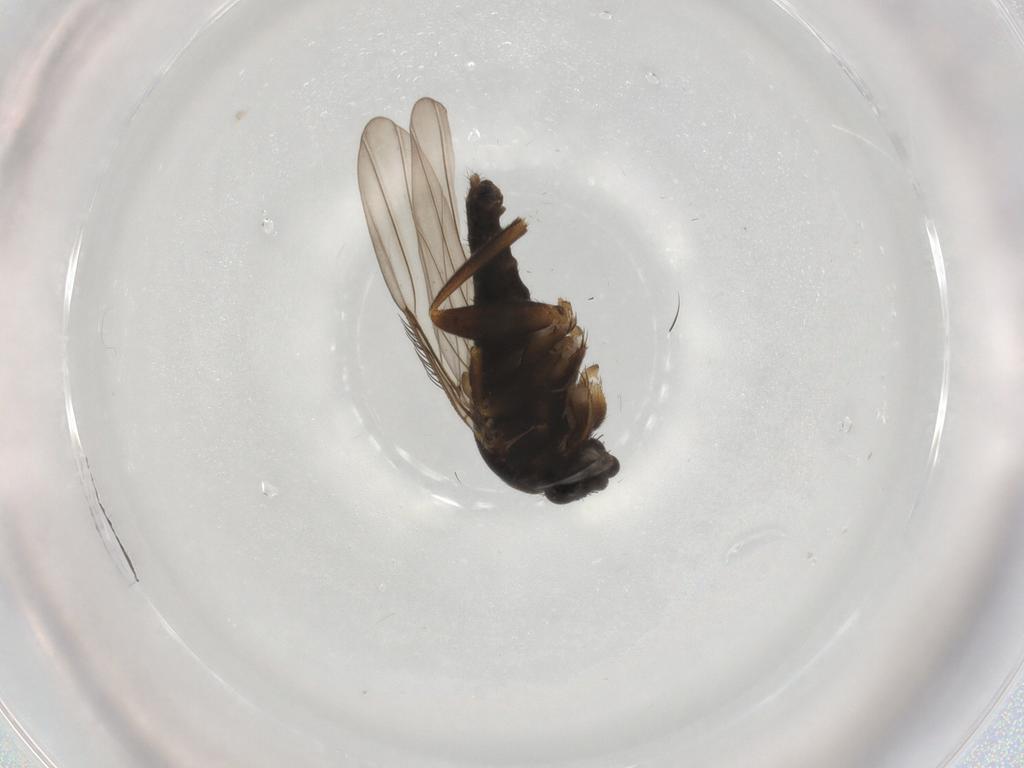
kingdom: Animalia
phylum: Arthropoda
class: Insecta
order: Diptera
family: Phoridae
